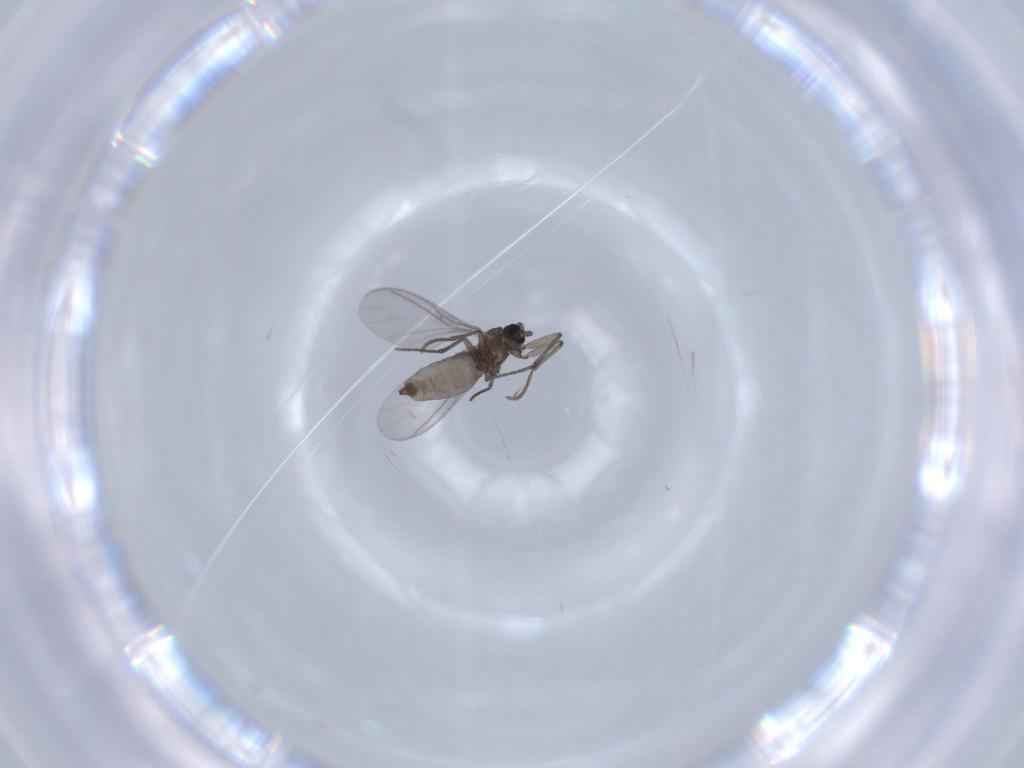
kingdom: Animalia
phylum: Arthropoda
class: Insecta
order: Diptera
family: Sciaridae
